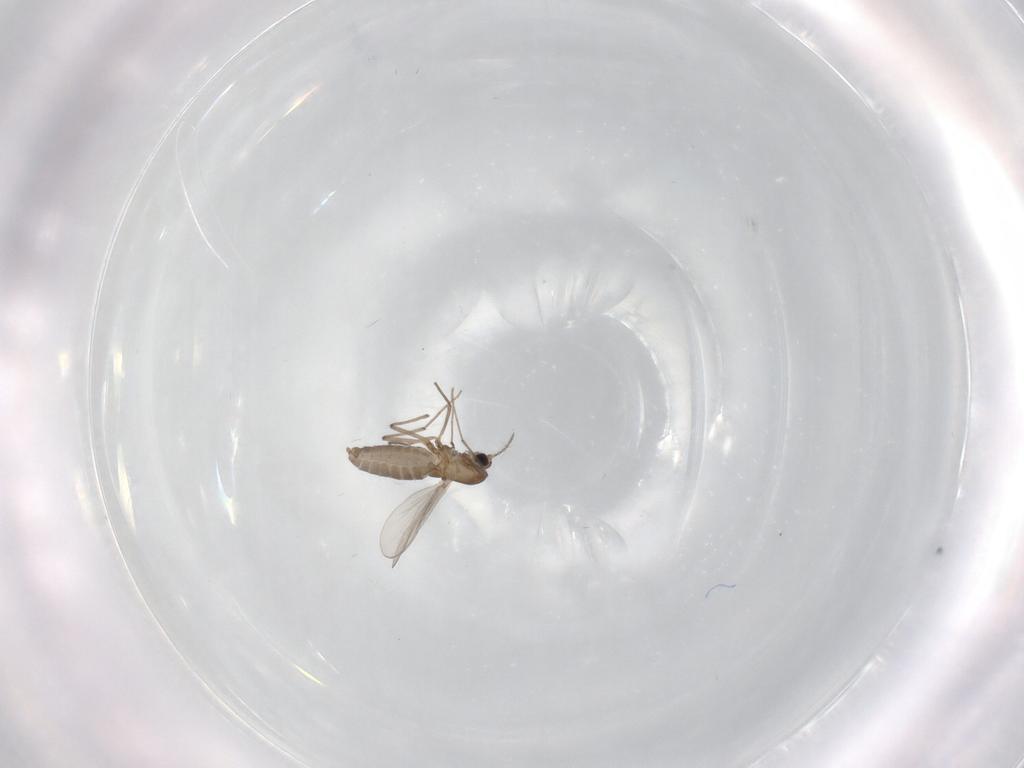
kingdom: Animalia
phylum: Arthropoda
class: Insecta
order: Diptera
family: Chironomidae
